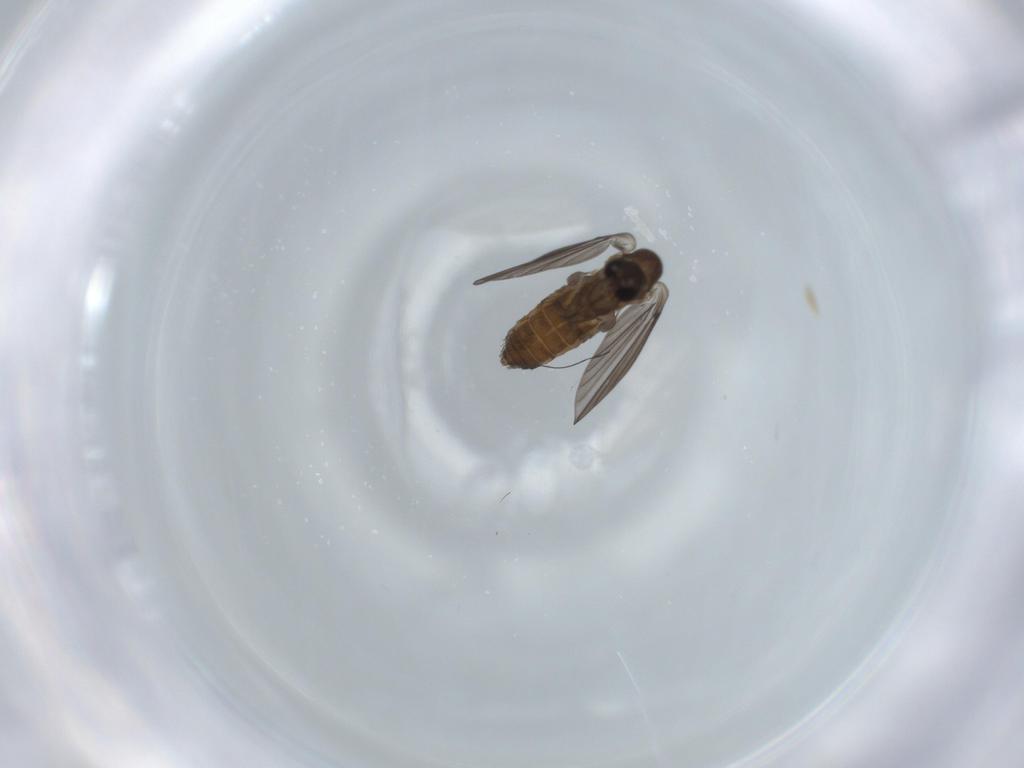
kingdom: Animalia
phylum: Arthropoda
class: Insecta
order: Diptera
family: Psychodidae
